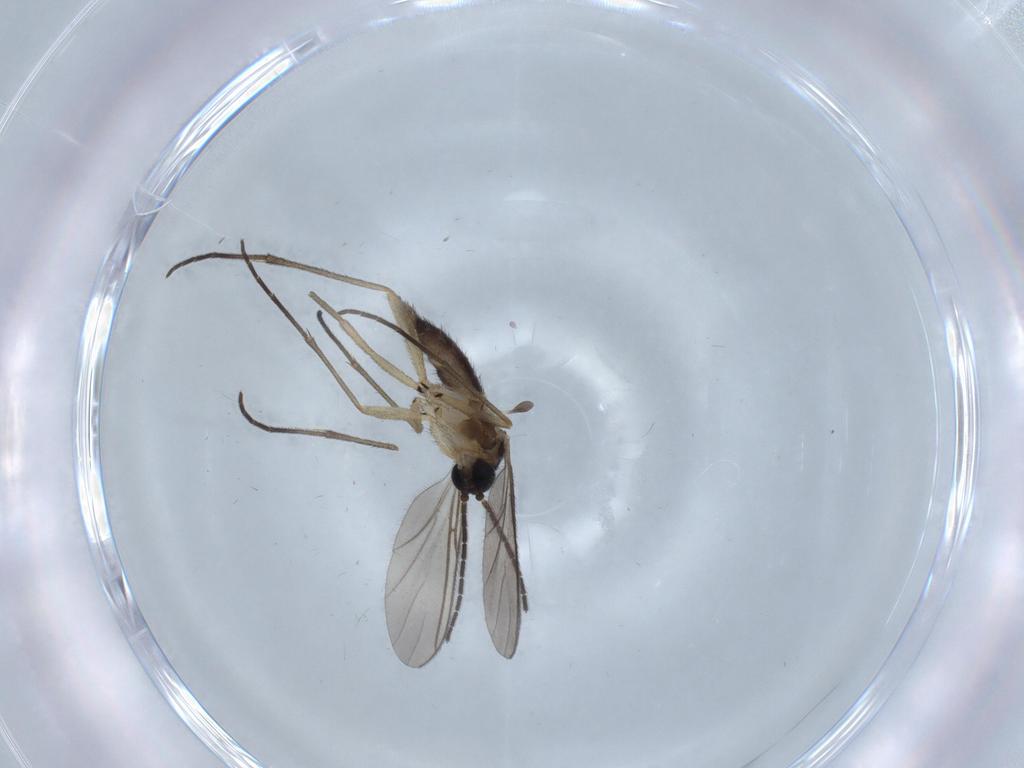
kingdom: Animalia
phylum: Arthropoda
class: Insecta
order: Diptera
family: Sciaridae
